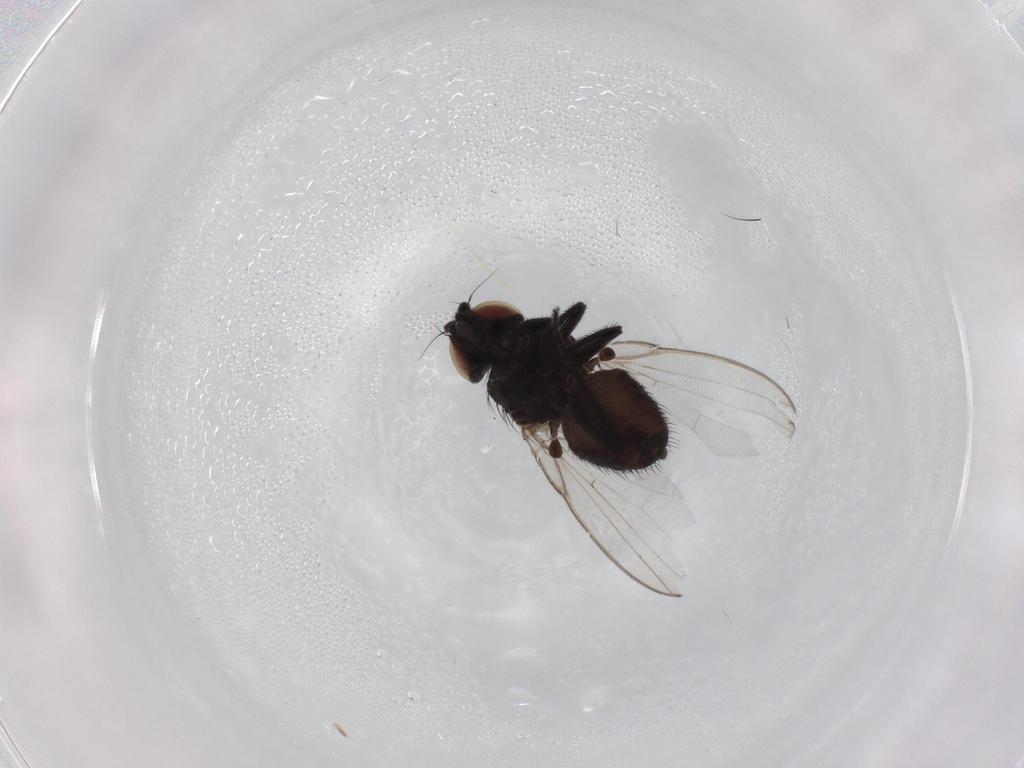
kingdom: Animalia
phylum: Arthropoda
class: Insecta
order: Diptera
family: Milichiidae
